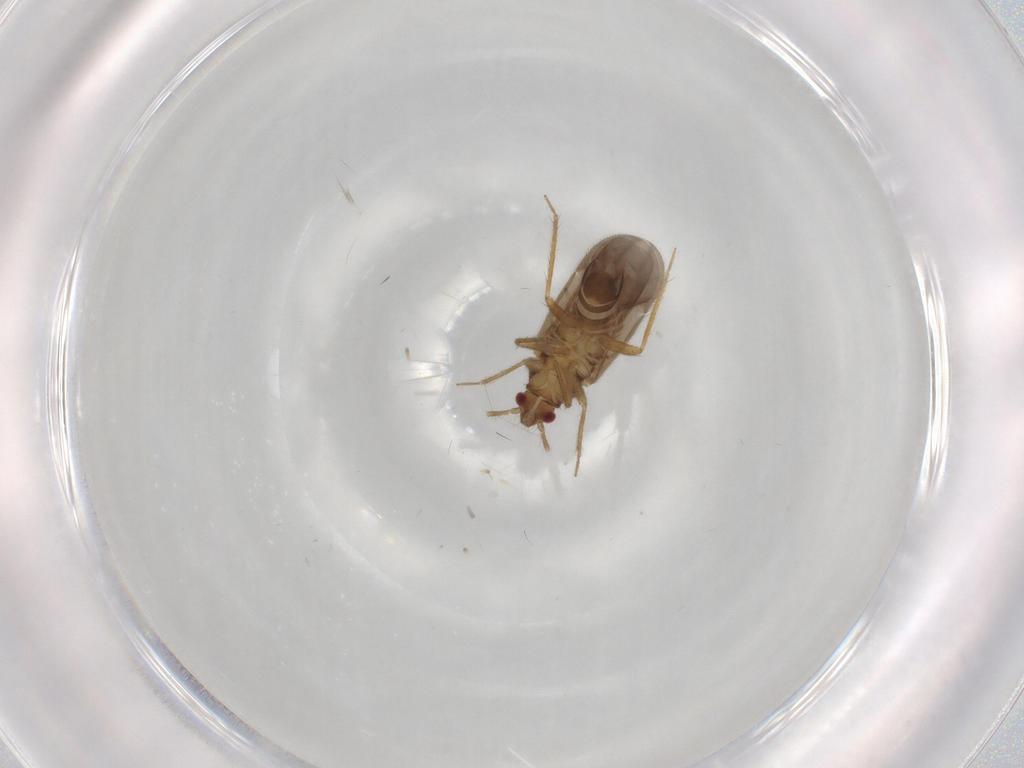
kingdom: Animalia
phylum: Arthropoda
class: Insecta
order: Hemiptera
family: Ceratocombidae
